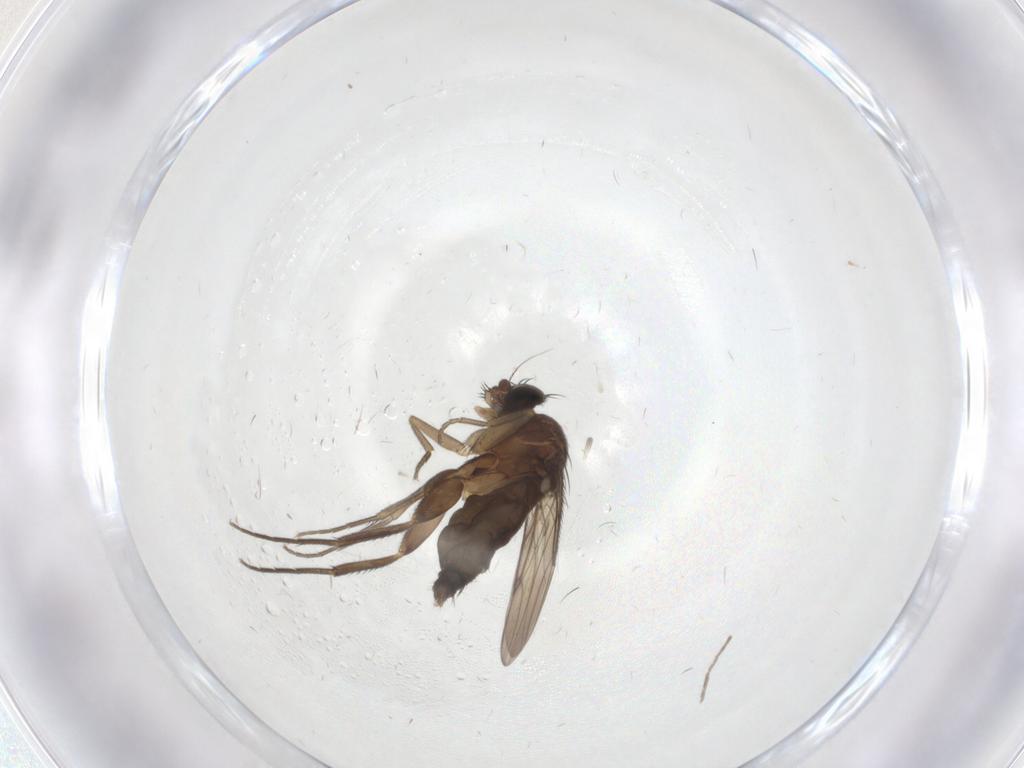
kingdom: Animalia
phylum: Arthropoda
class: Insecta
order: Diptera
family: Phoridae
